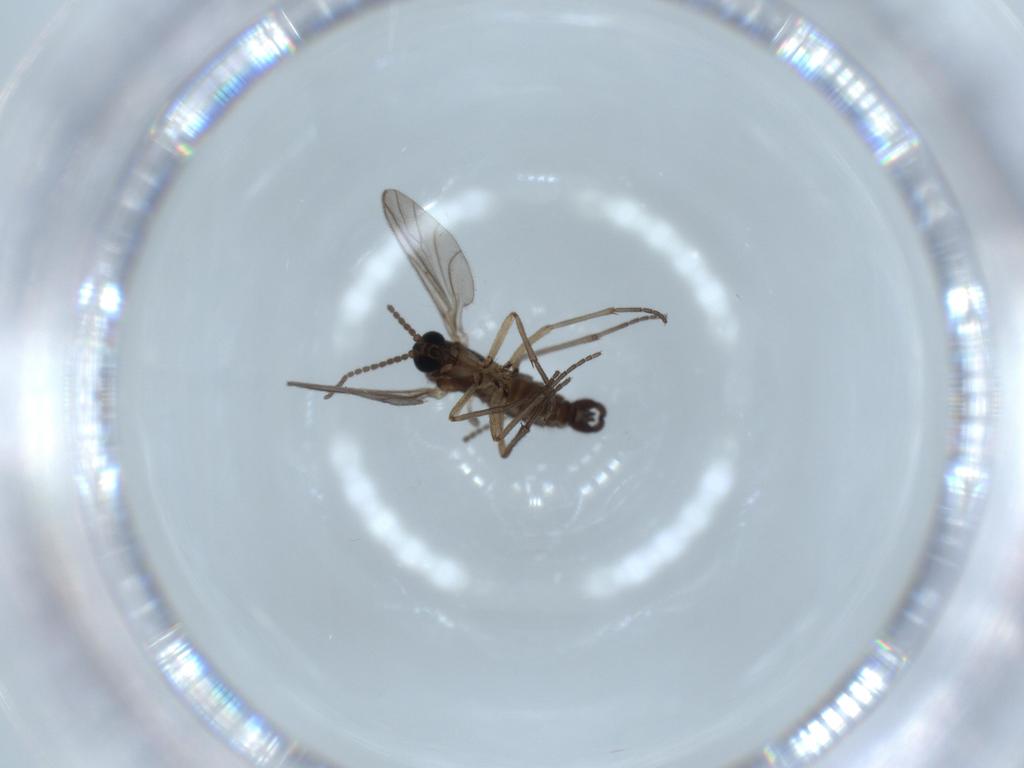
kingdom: Animalia
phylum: Arthropoda
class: Insecta
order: Diptera
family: Sciaridae
